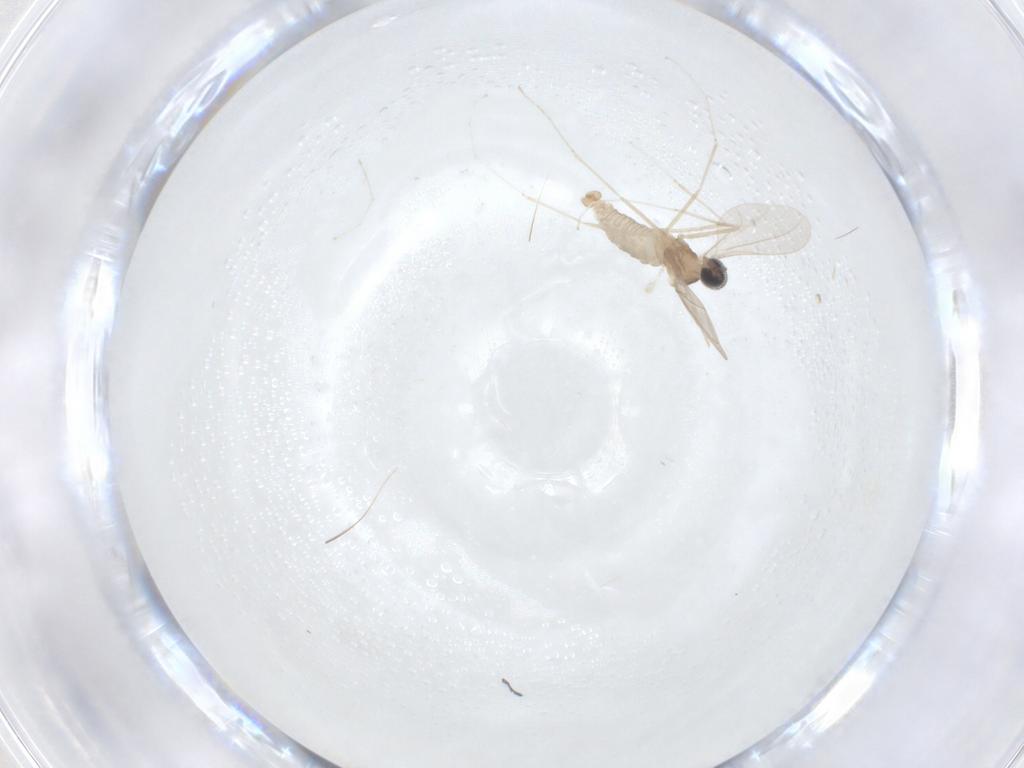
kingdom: Animalia
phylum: Arthropoda
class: Insecta
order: Diptera
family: Cecidomyiidae
